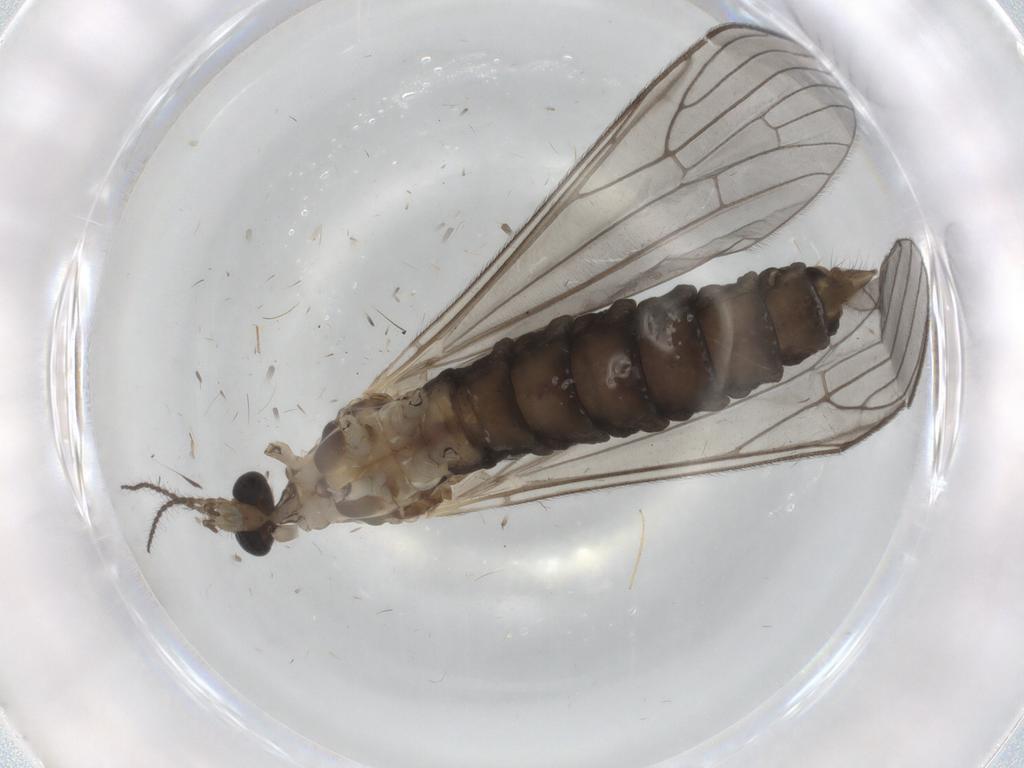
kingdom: Animalia
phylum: Arthropoda
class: Insecta
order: Diptera
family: Limoniidae
